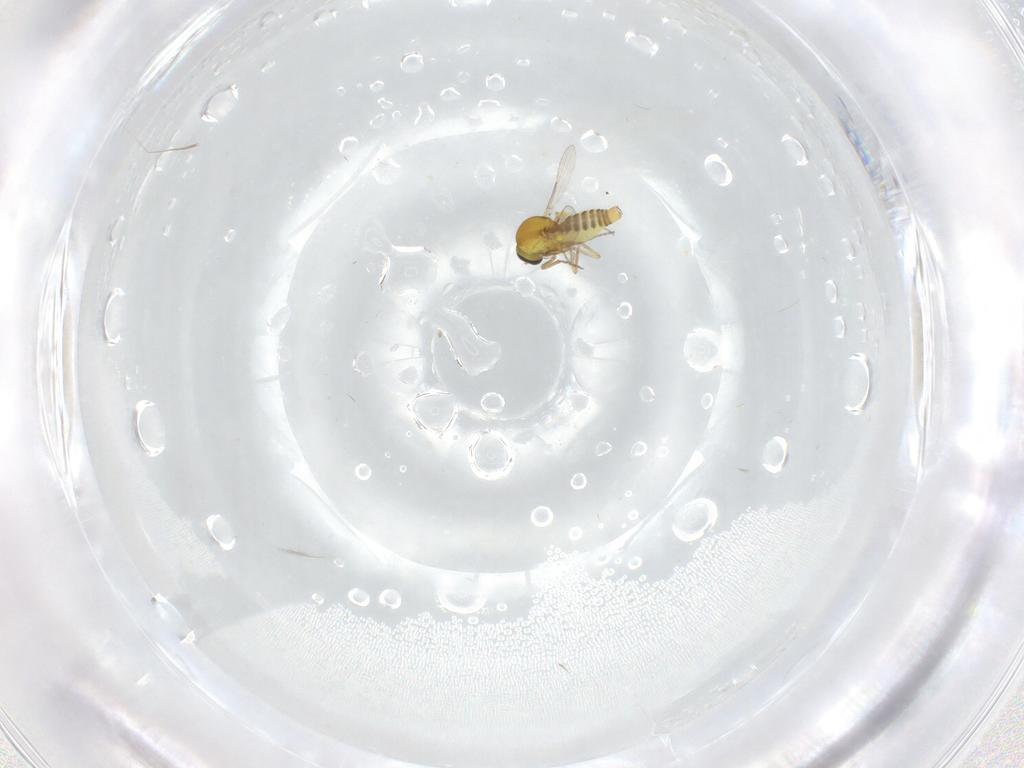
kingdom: Animalia
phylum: Arthropoda
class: Insecta
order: Diptera
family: Ceratopogonidae
